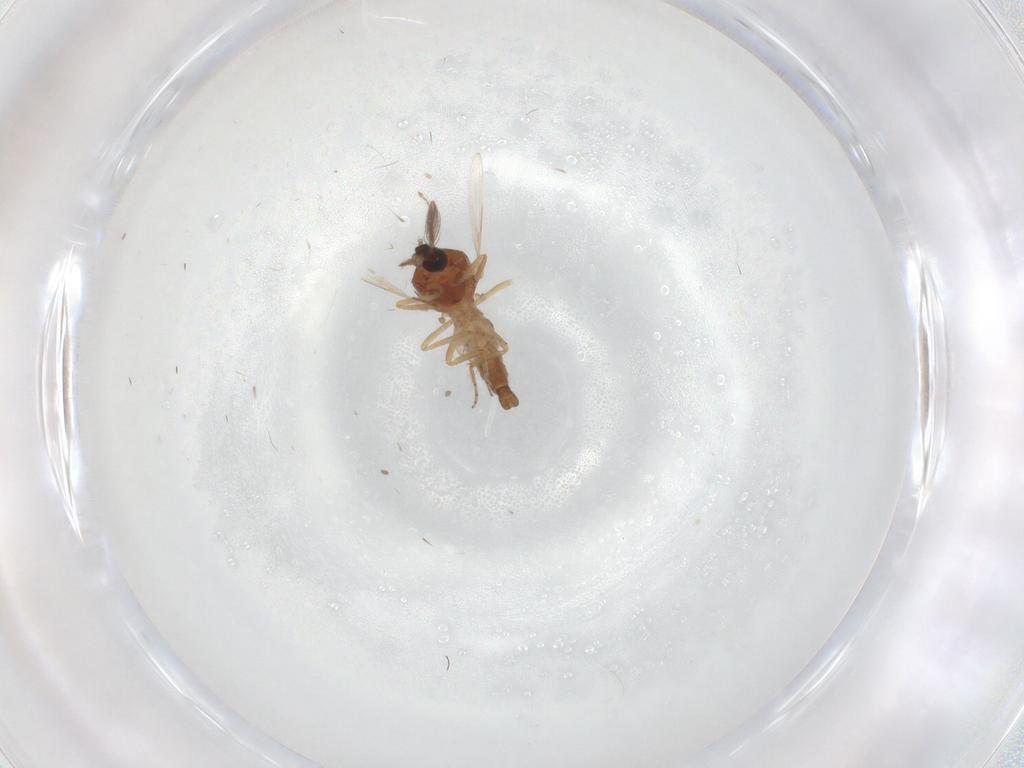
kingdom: Animalia
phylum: Arthropoda
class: Insecta
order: Diptera
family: Ceratopogonidae
